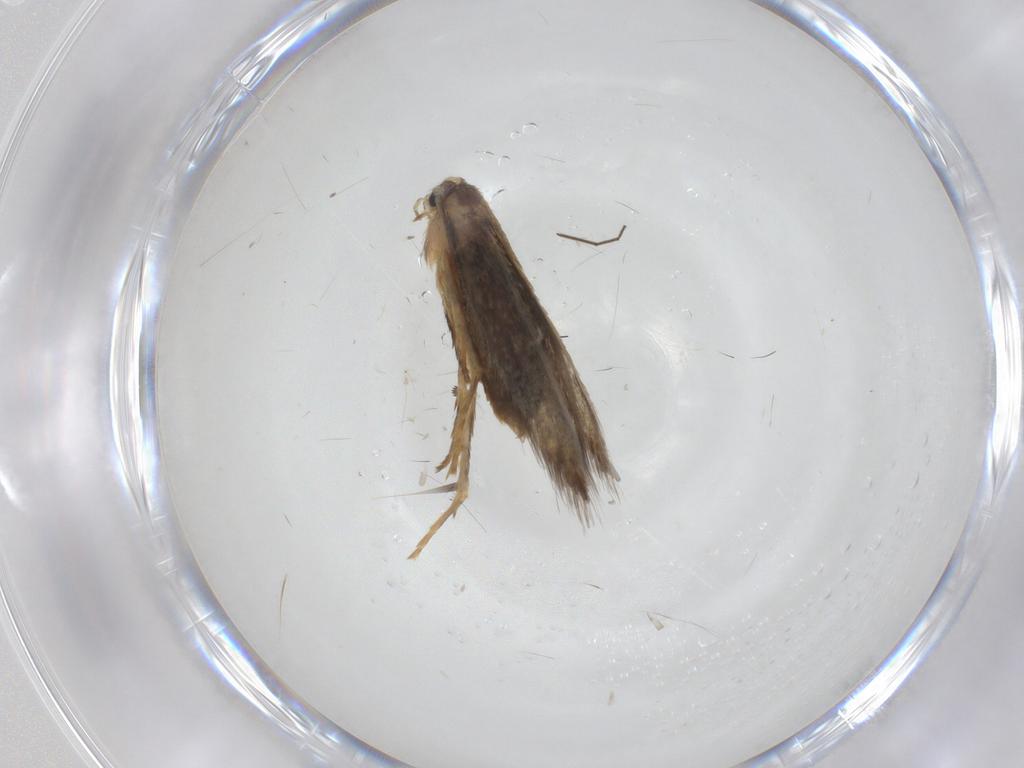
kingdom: Animalia
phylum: Arthropoda
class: Insecta
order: Lepidoptera
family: Nepticulidae
